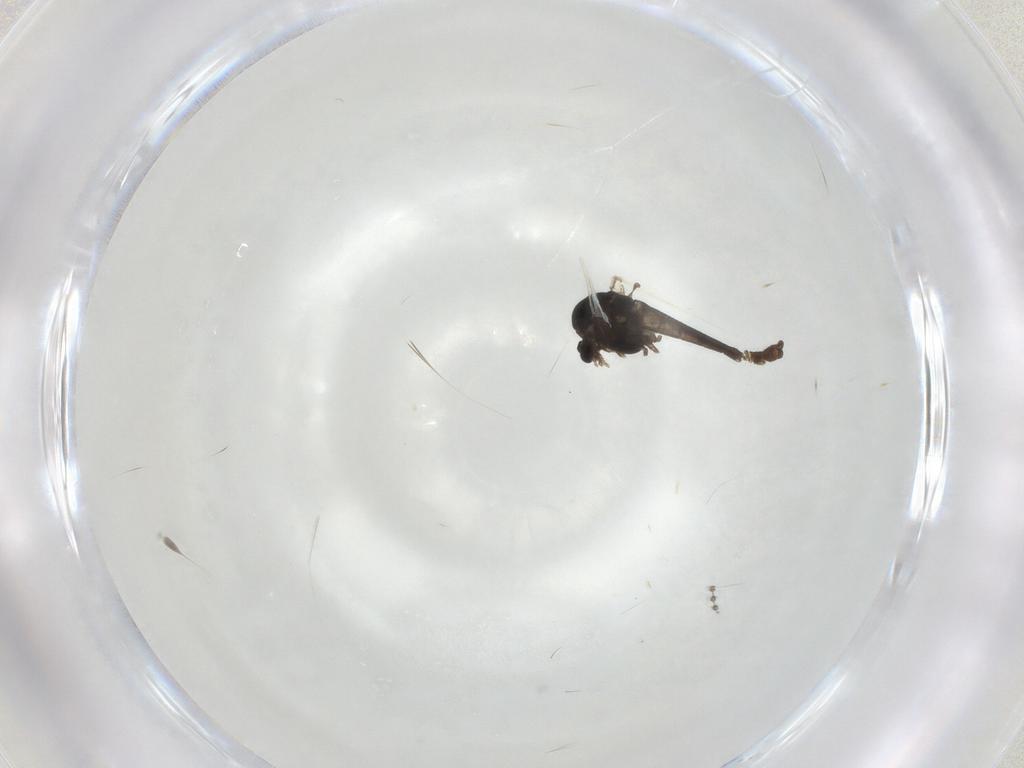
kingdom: Animalia
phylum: Arthropoda
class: Insecta
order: Diptera
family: Chironomidae
